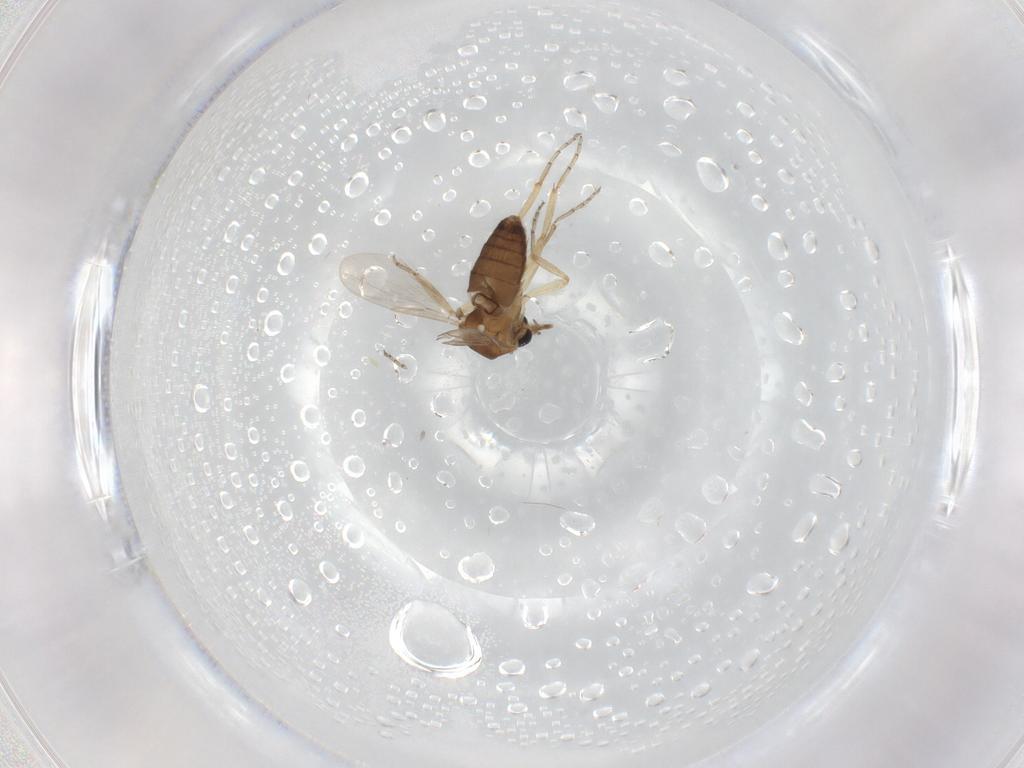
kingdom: Animalia
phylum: Arthropoda
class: Insecta
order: Diptera
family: Ceratopogonidae
